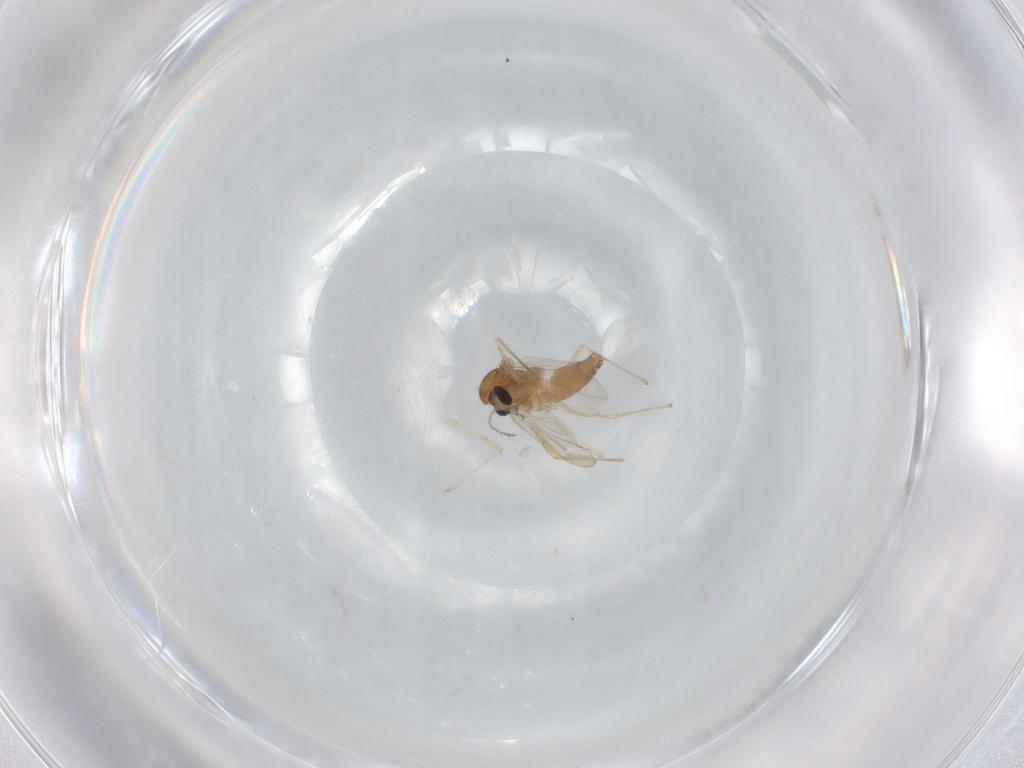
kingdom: Animalia
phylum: Arthropoda
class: Insecta
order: Diptera
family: Chironomidae
